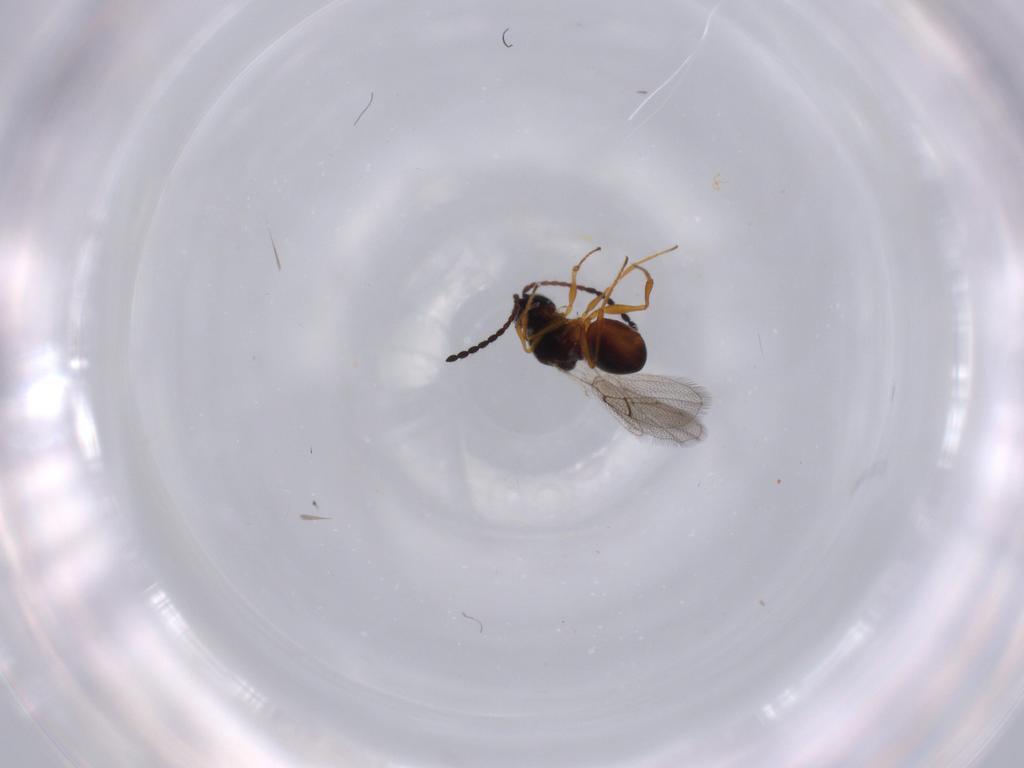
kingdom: Animalia
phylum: Arthropoda
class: Insecta
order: Hymenoptera
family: Figitidae
